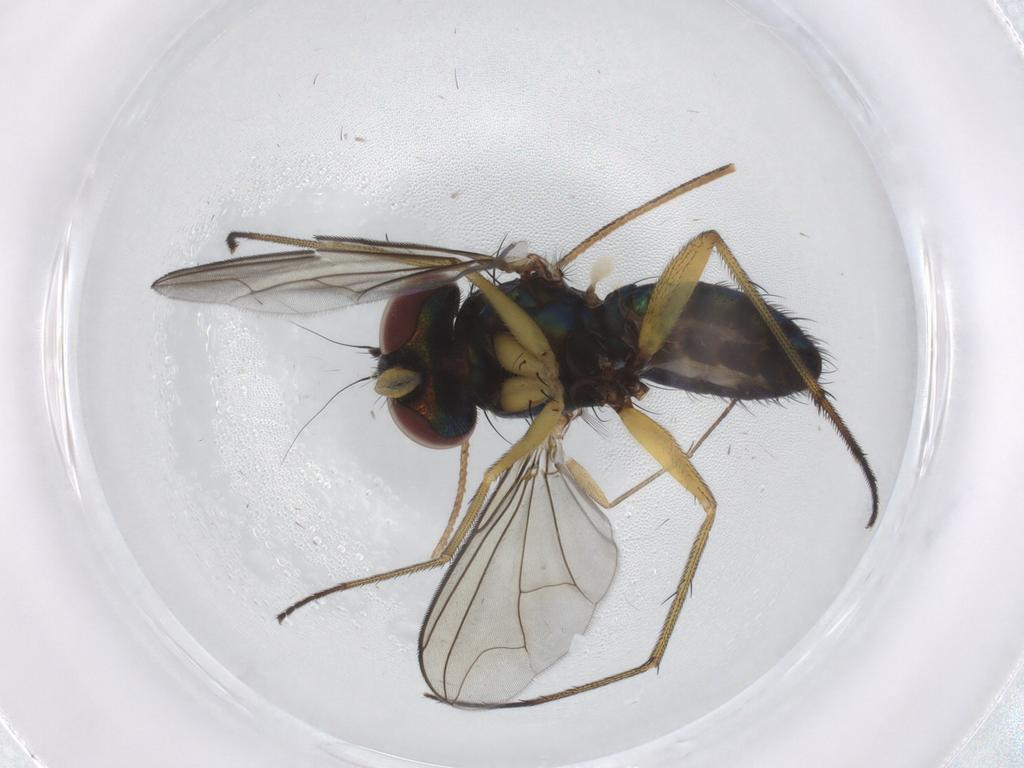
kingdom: Animalia
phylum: Arthropoda
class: Insecta
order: Diptera
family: Dolichopodidae
